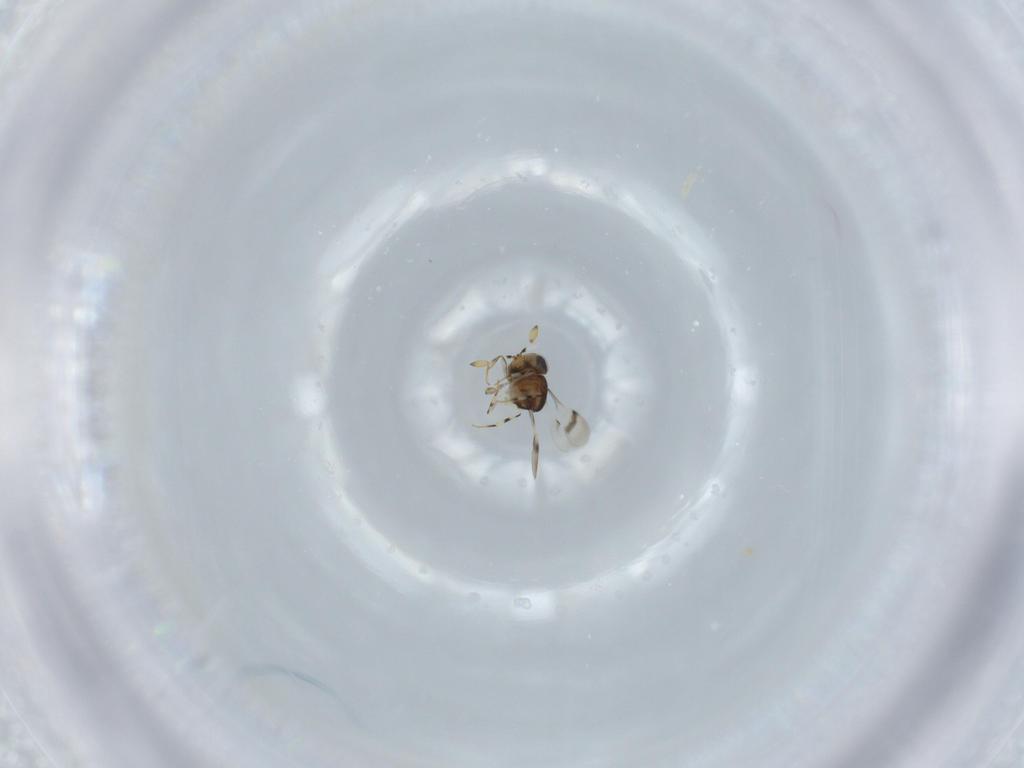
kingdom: Animalia
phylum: Arthropoda
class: Insecta
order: Hymenoptera
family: Scelionidae
